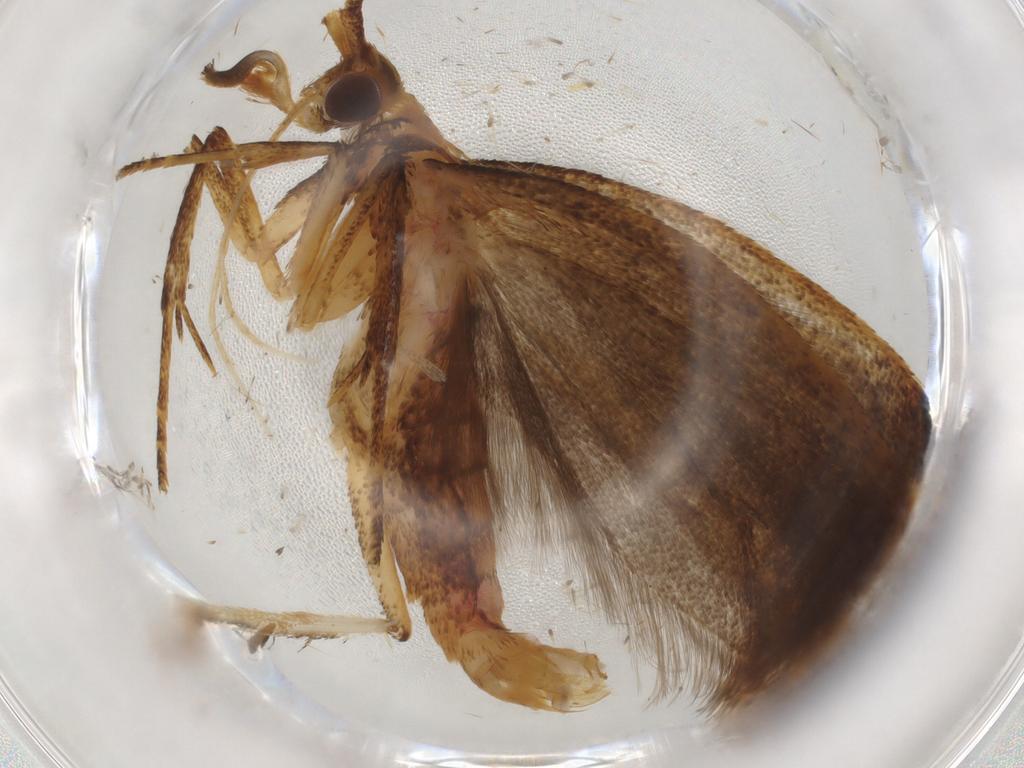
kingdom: Animalia
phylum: Arthropoda
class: Insecta
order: Lepidoptera
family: Lecithoceridae
